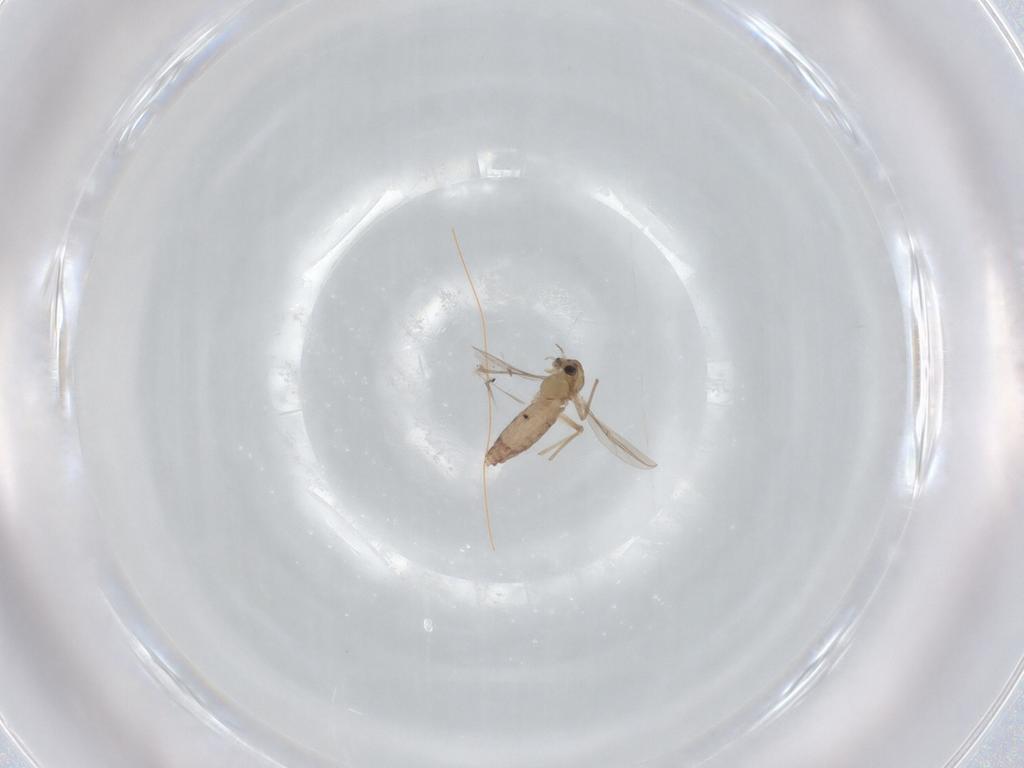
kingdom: Animalia
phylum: Arthropoda
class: Insecta
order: Diptera
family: Chironomidae
